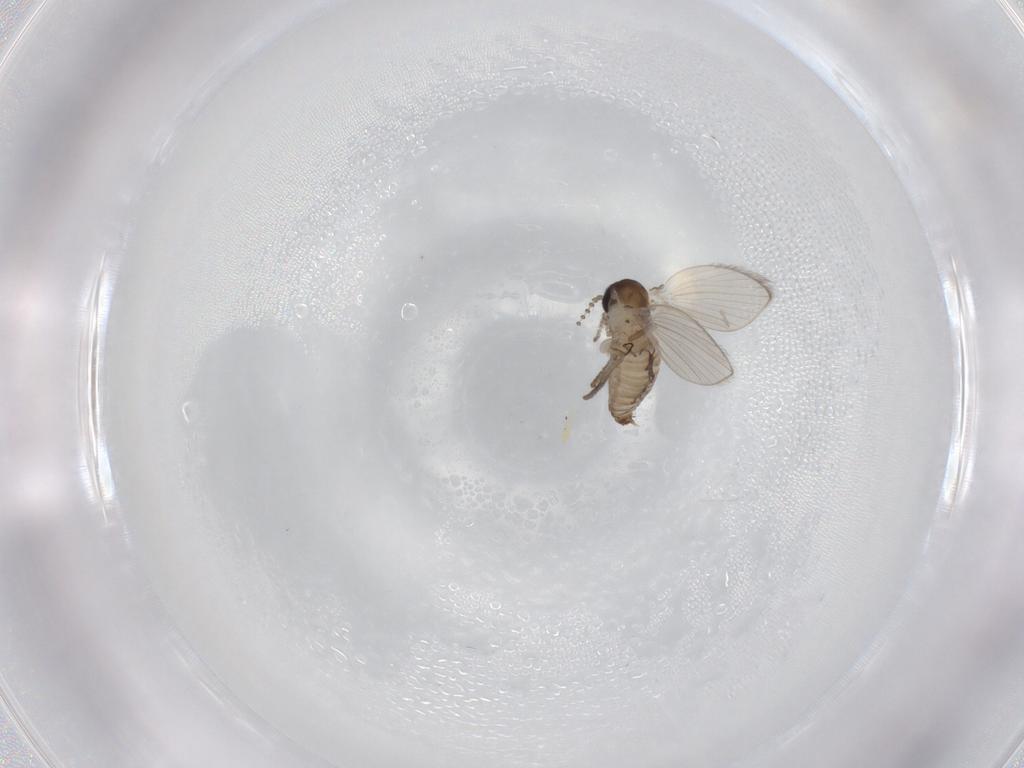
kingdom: Animalia
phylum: Arthropoda
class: Insecta
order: Diptera
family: Psychodidae
